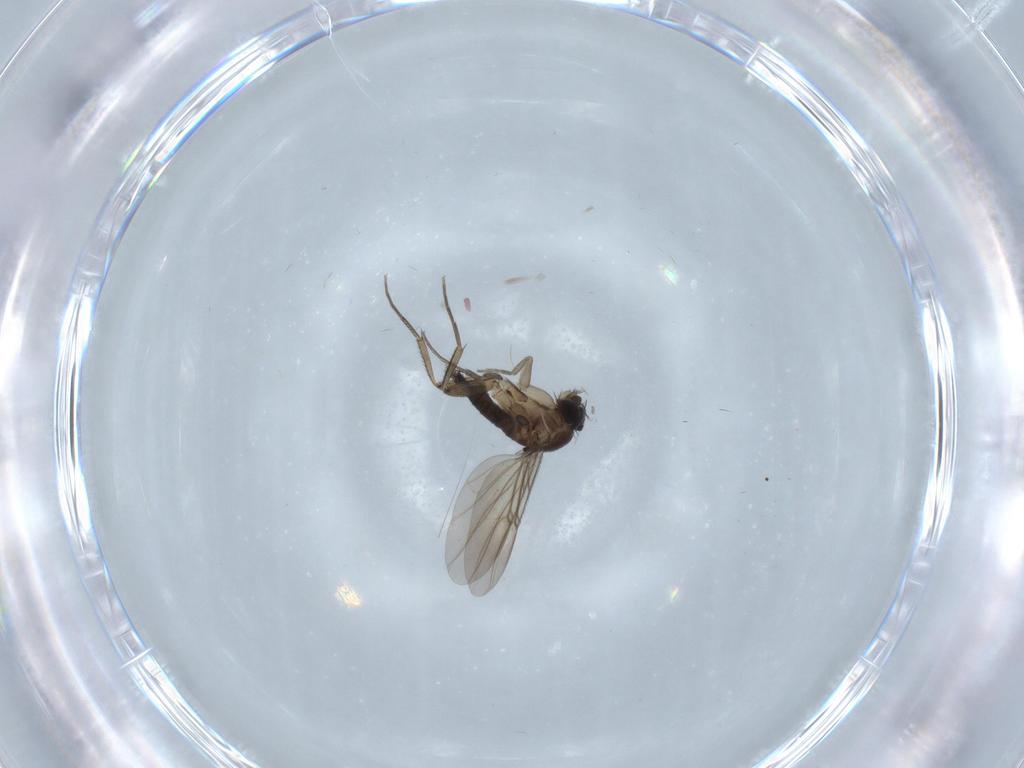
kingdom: Animalia
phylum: Arthropoda
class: Insecta
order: Diptera
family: Phoridae
